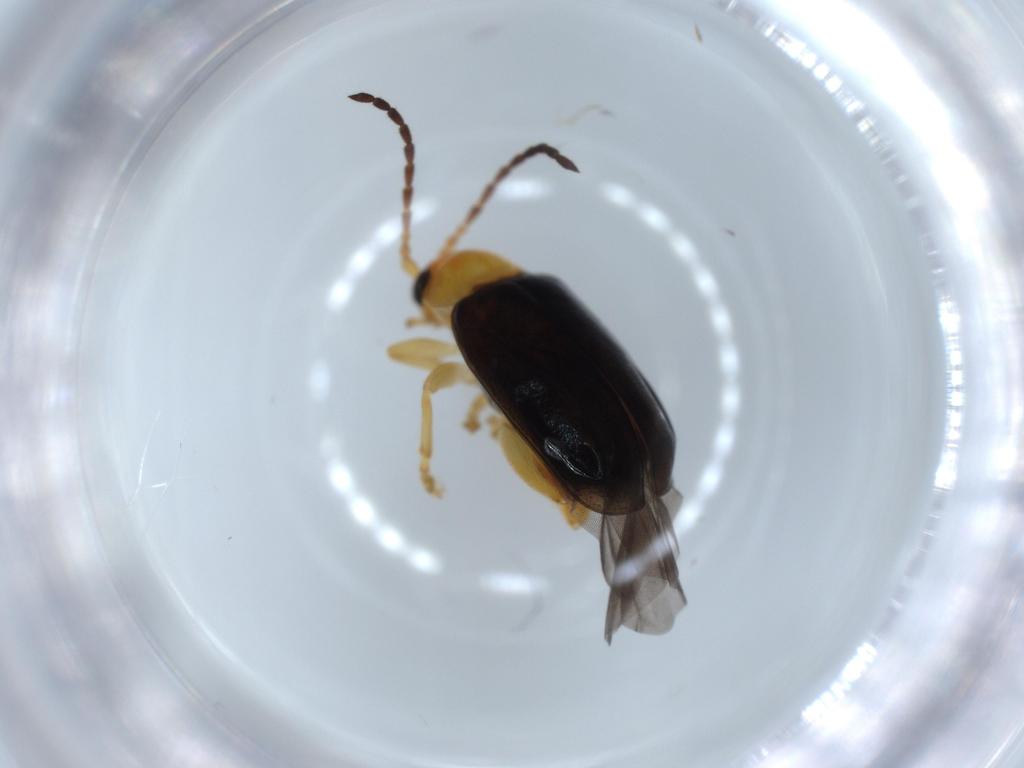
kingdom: Animalia
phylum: Arthropoda
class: Insecta
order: Coleoptera
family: Chrysomelidae
